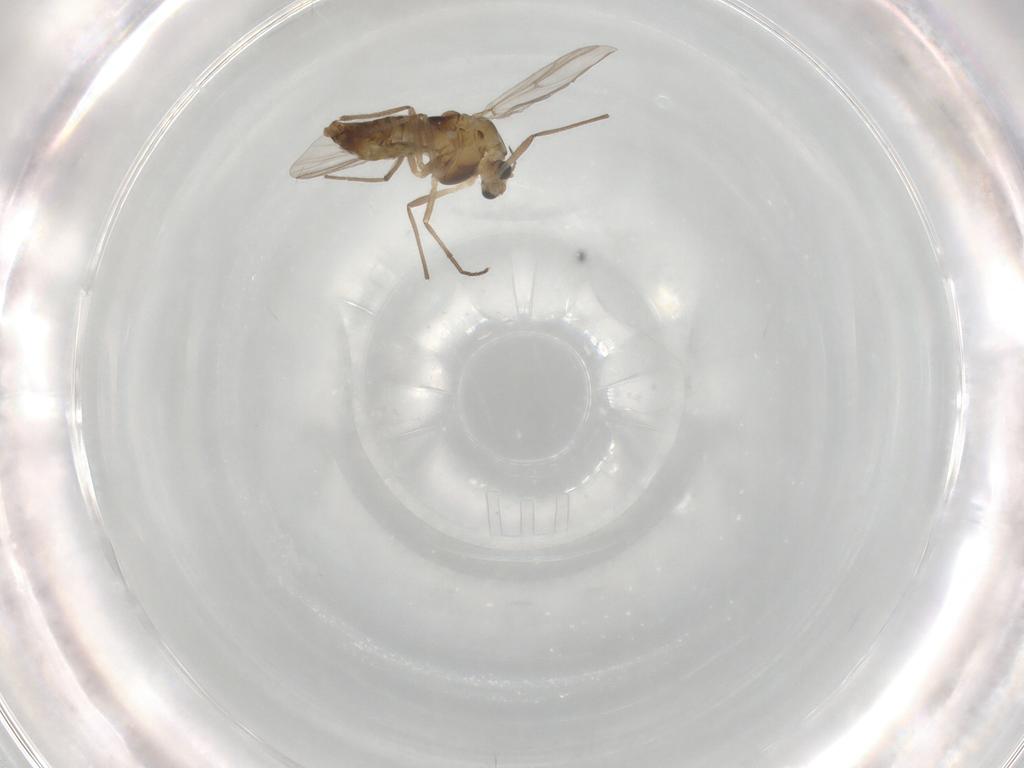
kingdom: Animalia
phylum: Arthropoda
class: Insecta
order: Diptera
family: Chironomidae
